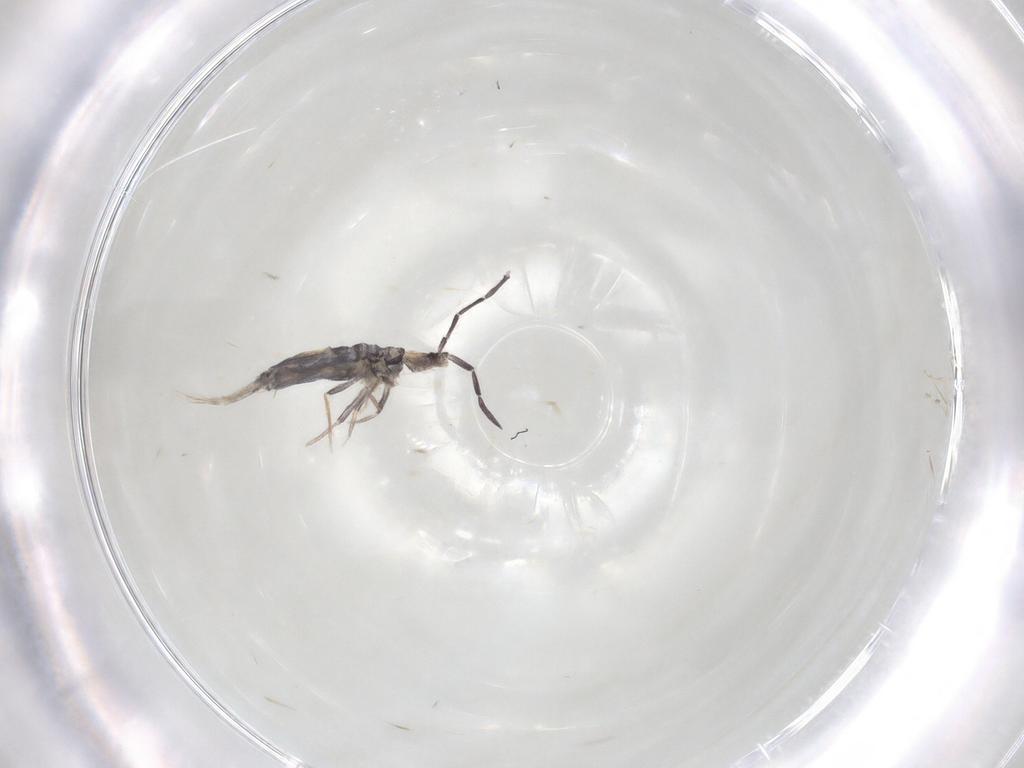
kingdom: Animalia
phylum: Arthropoda
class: Collembola
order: Poduromorpha
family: Hypogastruridae
